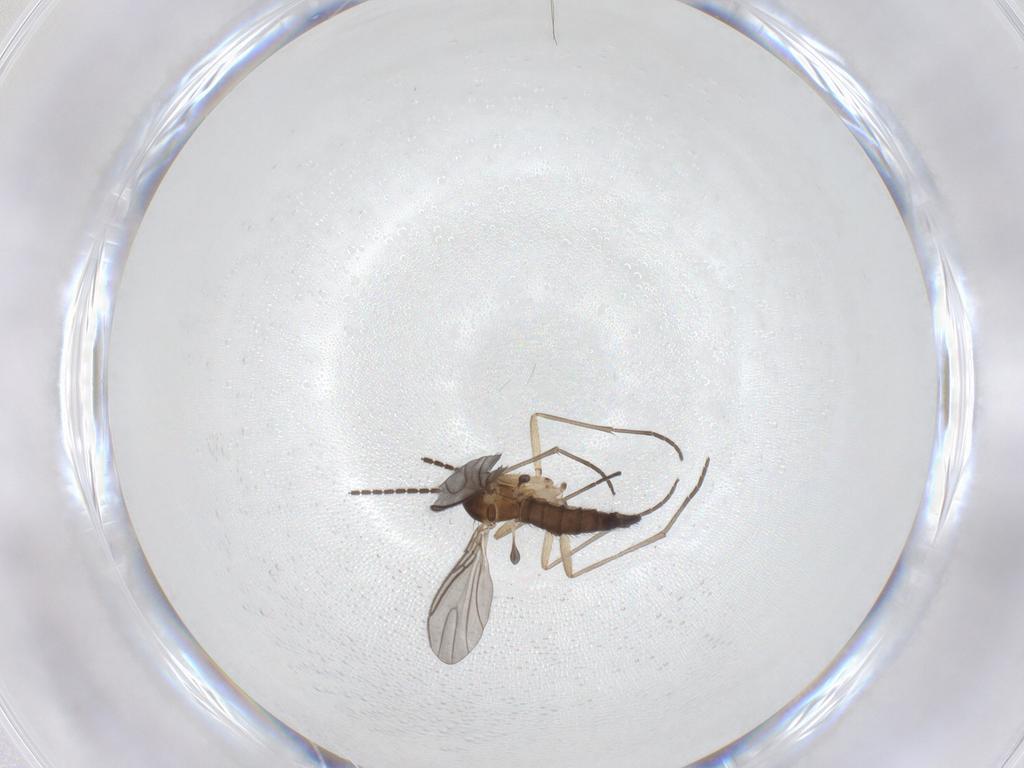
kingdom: Animalia
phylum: Arthropoda
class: Insecta
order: Diptera
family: Sciaridae
